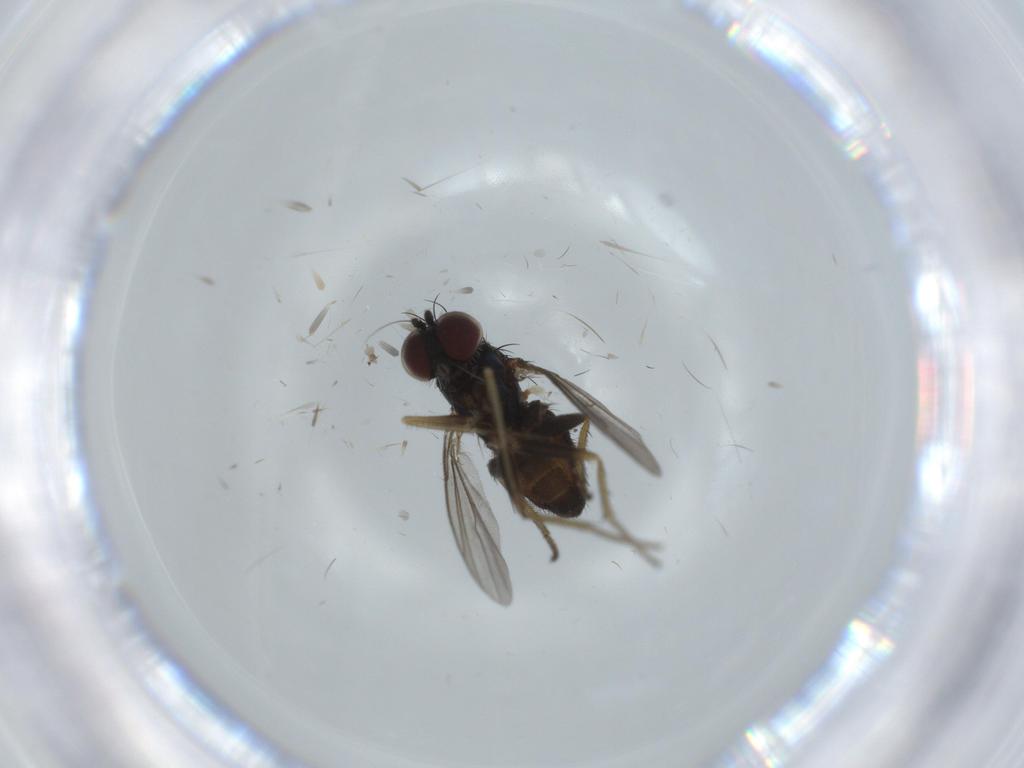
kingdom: Animalia
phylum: Arthropoda
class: Insecta
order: Diptera
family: Dolichopodidae
